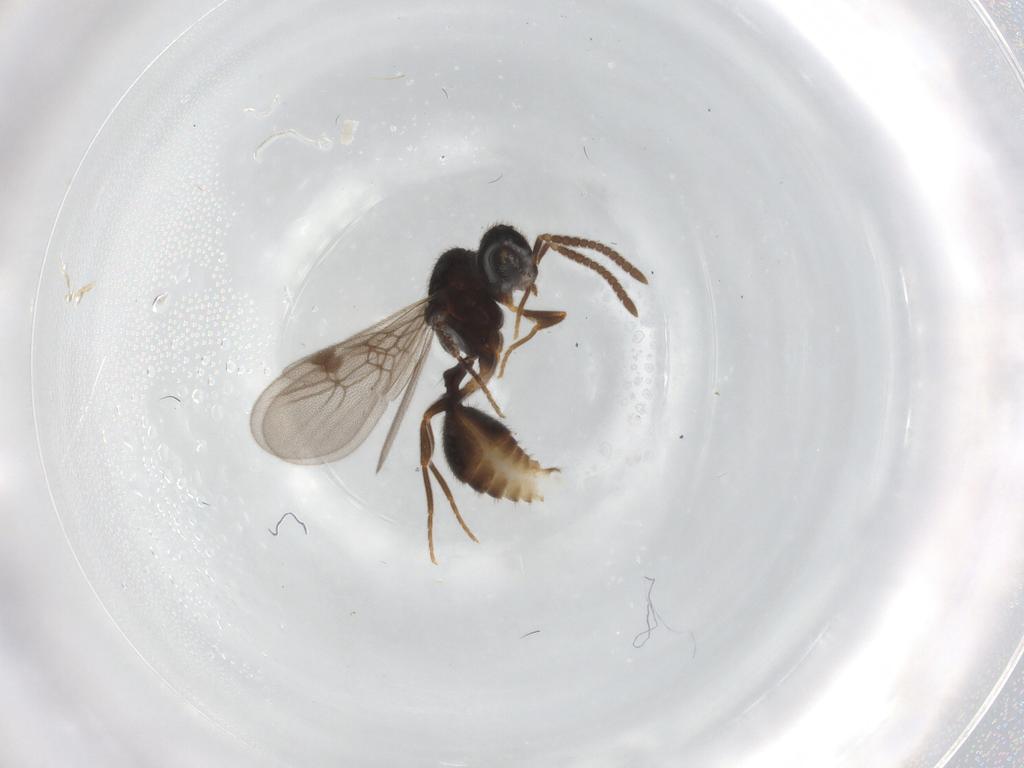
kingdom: Animalia
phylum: Arthropoda
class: Insecta
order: Hymenoptera
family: Formicidae
